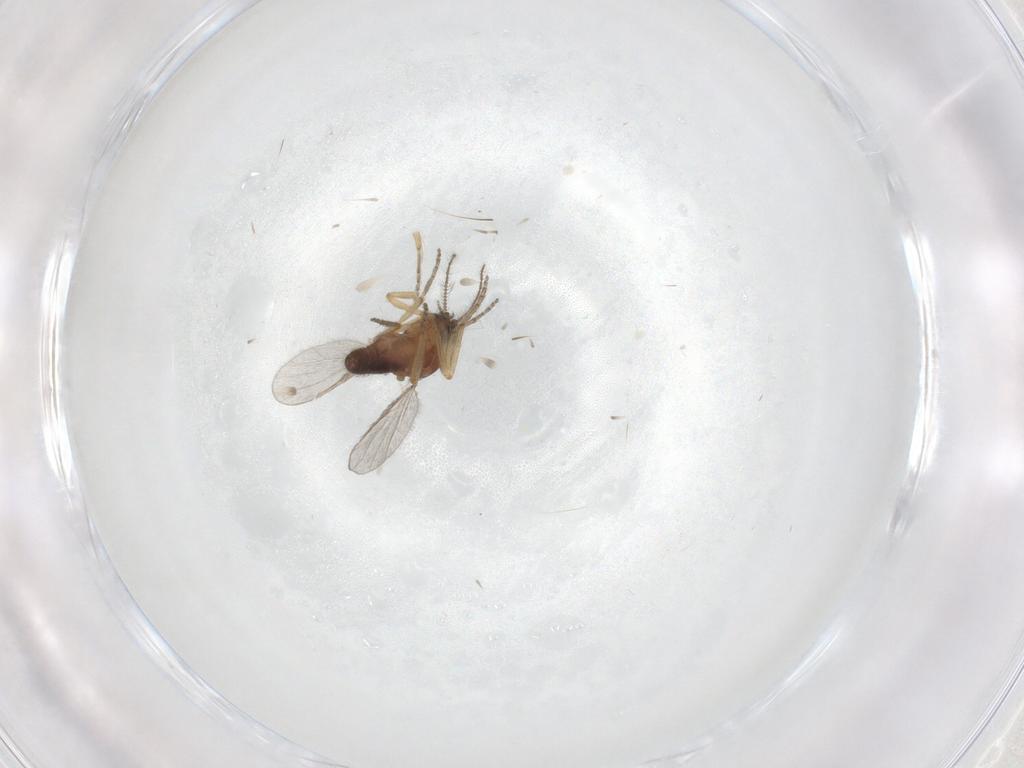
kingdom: Animalia
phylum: Arthropoda
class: Insecta
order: Diptera
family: Ceratopogonidae
